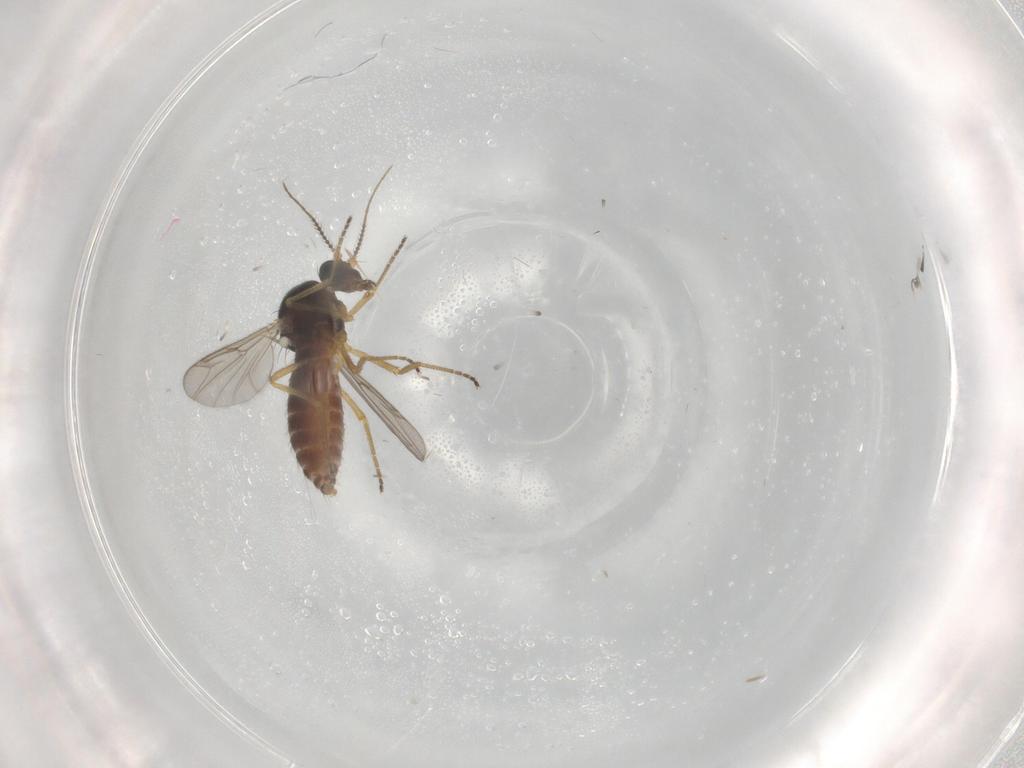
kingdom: Animalia
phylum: Arthropoda
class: Insecta
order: Diptera
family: Ceratopogonidae
